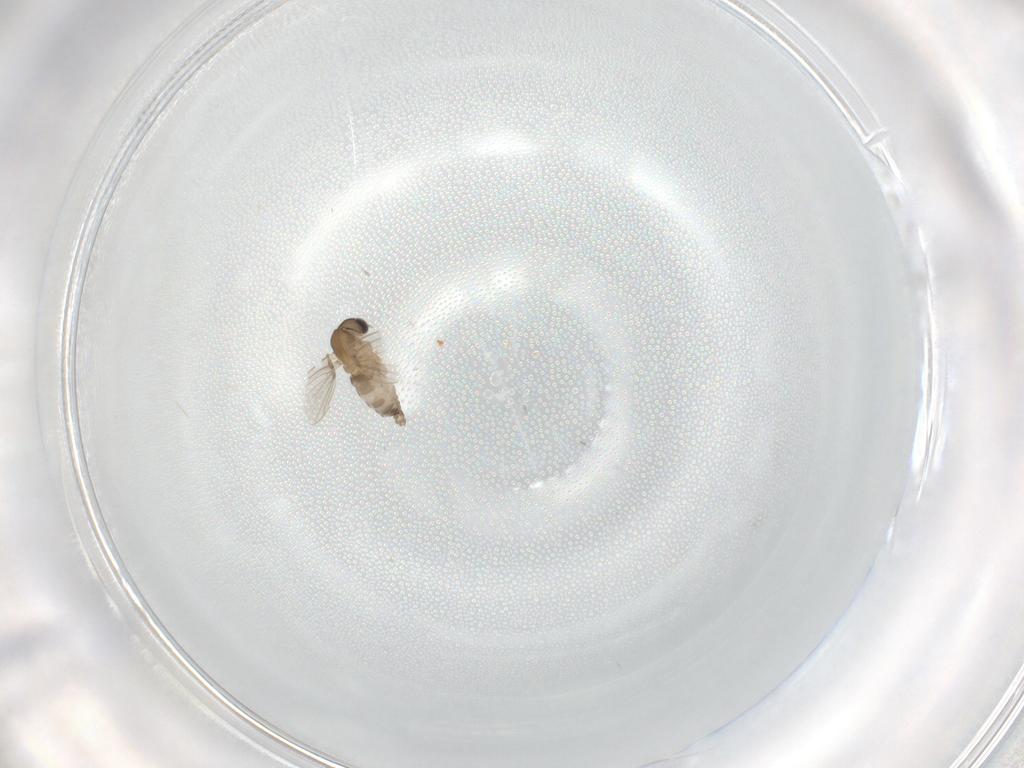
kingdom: Animalia
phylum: Arthropoda
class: Insecta
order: Diptera
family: Psychodidae
